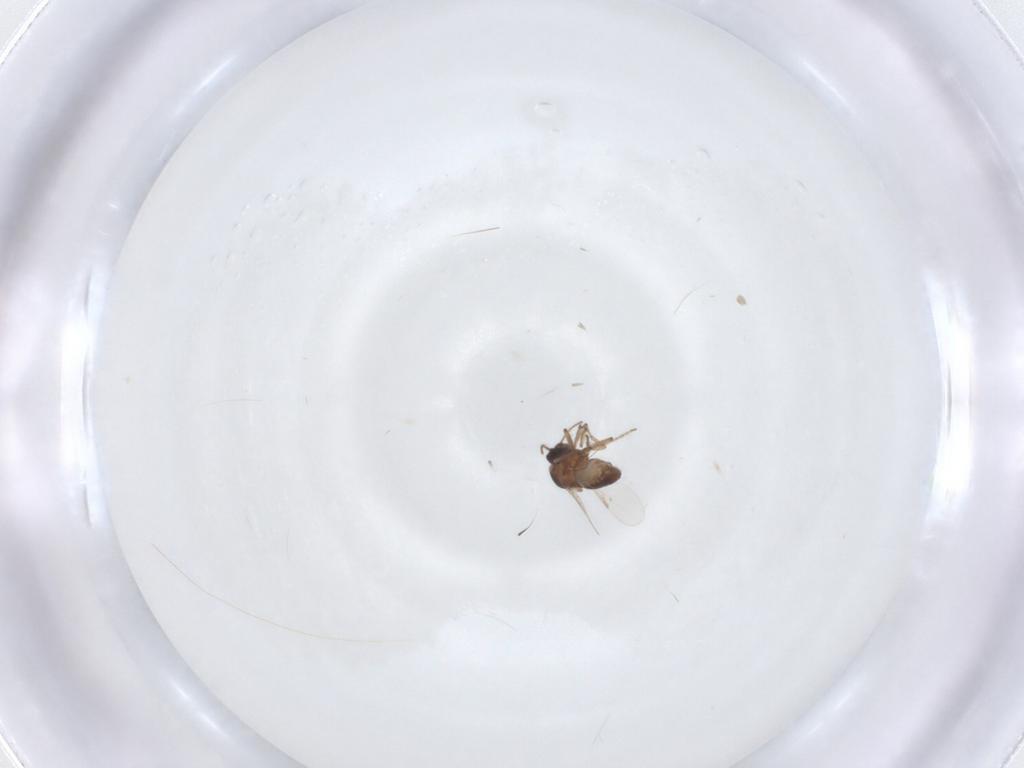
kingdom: Animalia
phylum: Arthropoda
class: Insecta
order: Diptera
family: Ceratopogonidae
